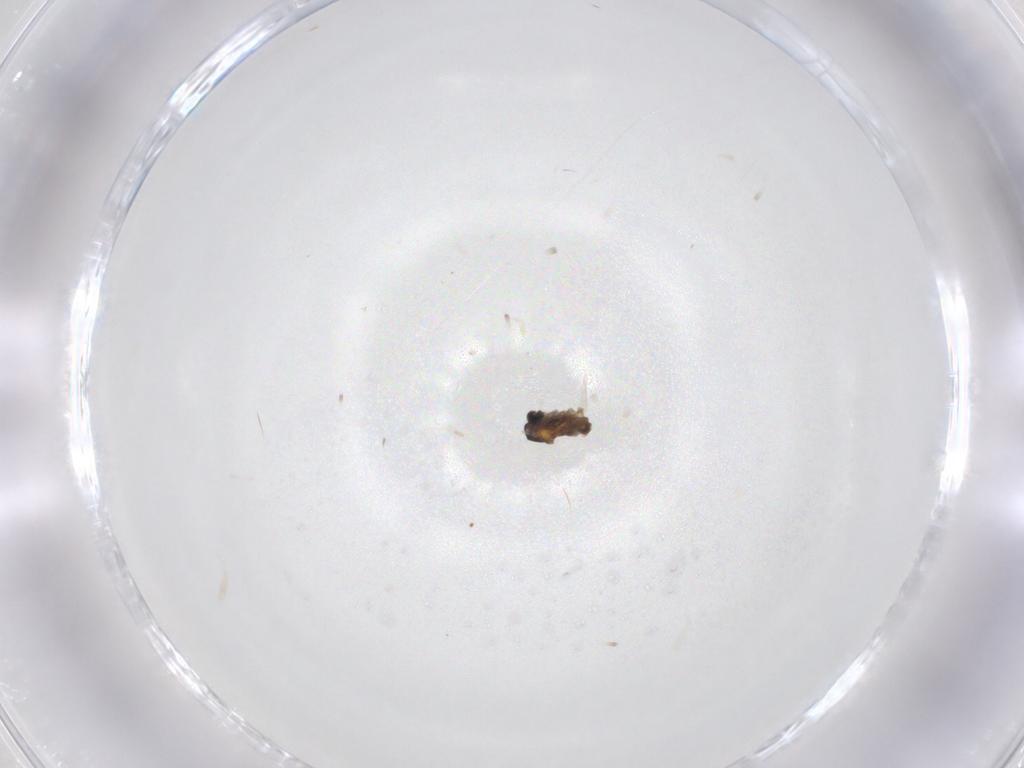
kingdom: Animalia
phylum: Arthropoda
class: Insecta
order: Diptera
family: Cecidomyiidae
